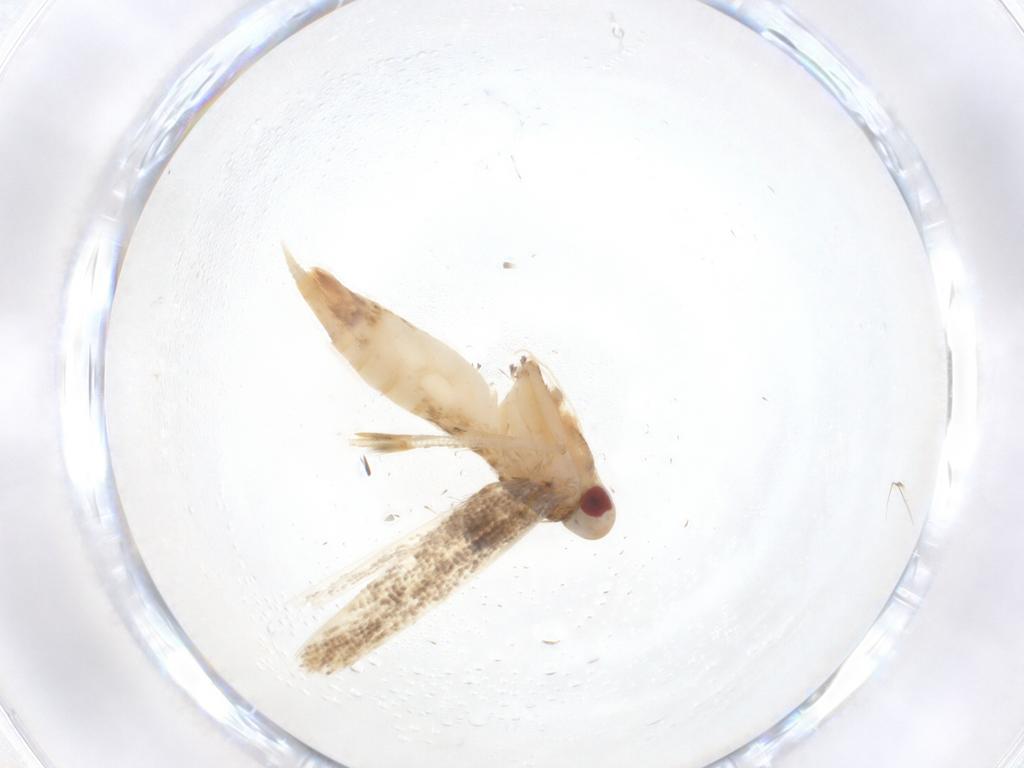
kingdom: Animalia
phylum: Arthropoda
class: Insecta
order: Lepidoptera
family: Cosmopterigidae
